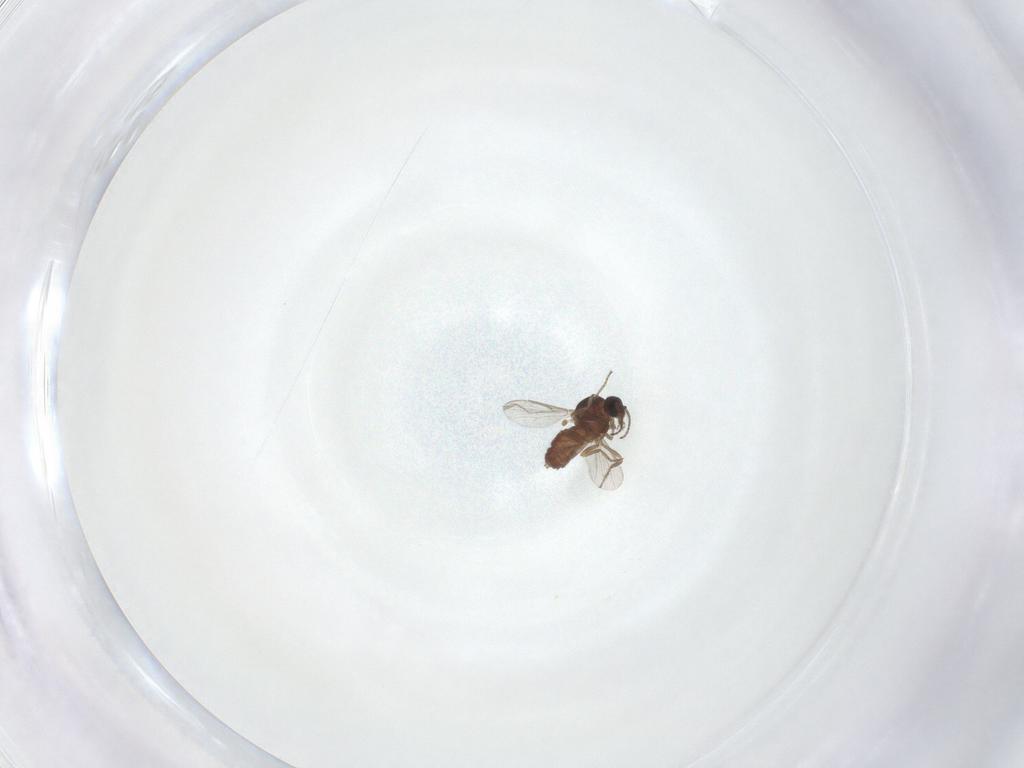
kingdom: Animalia
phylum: Arthropoda
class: Insecta
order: Diptera
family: Ceratopogonidae
